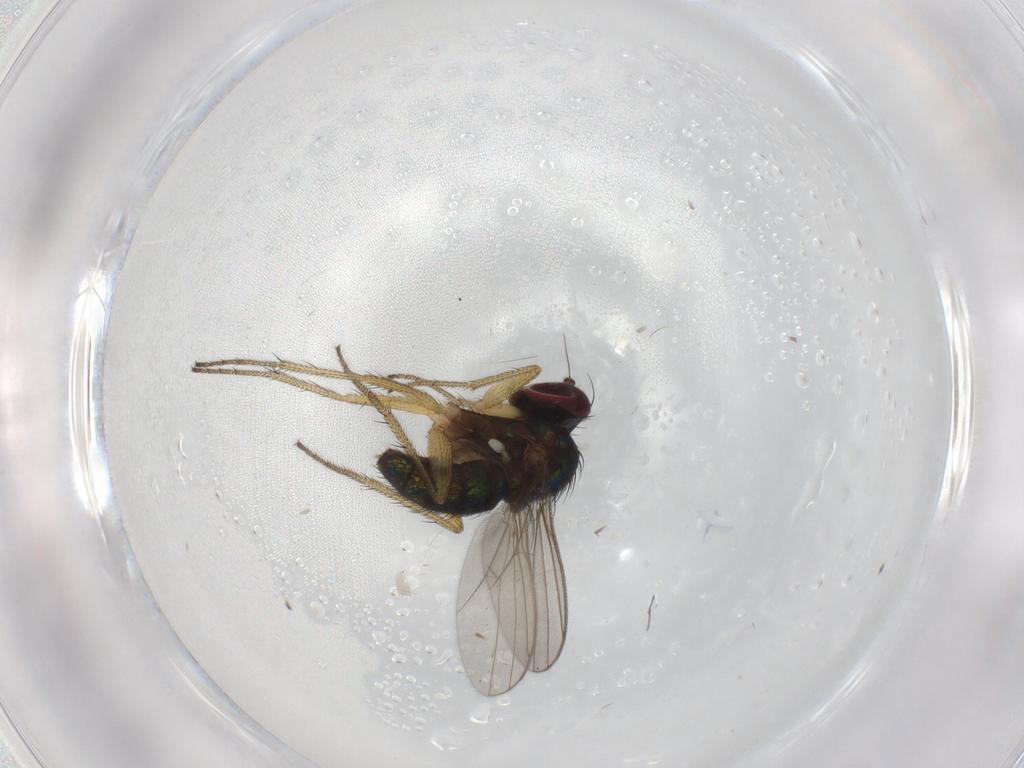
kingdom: Animalia
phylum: Arthropoda
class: Insecta
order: Diptera
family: Dolichopodidae
